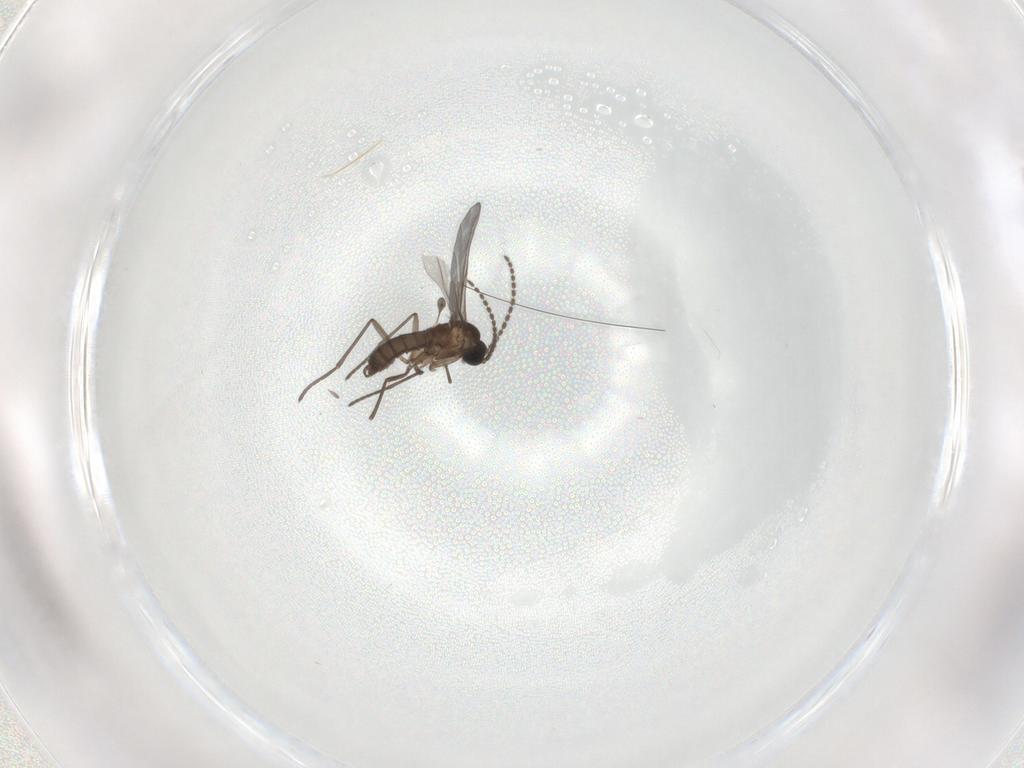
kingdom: Animalia
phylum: Arthropoda
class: Insecta
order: Diptera
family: Sciaridae
